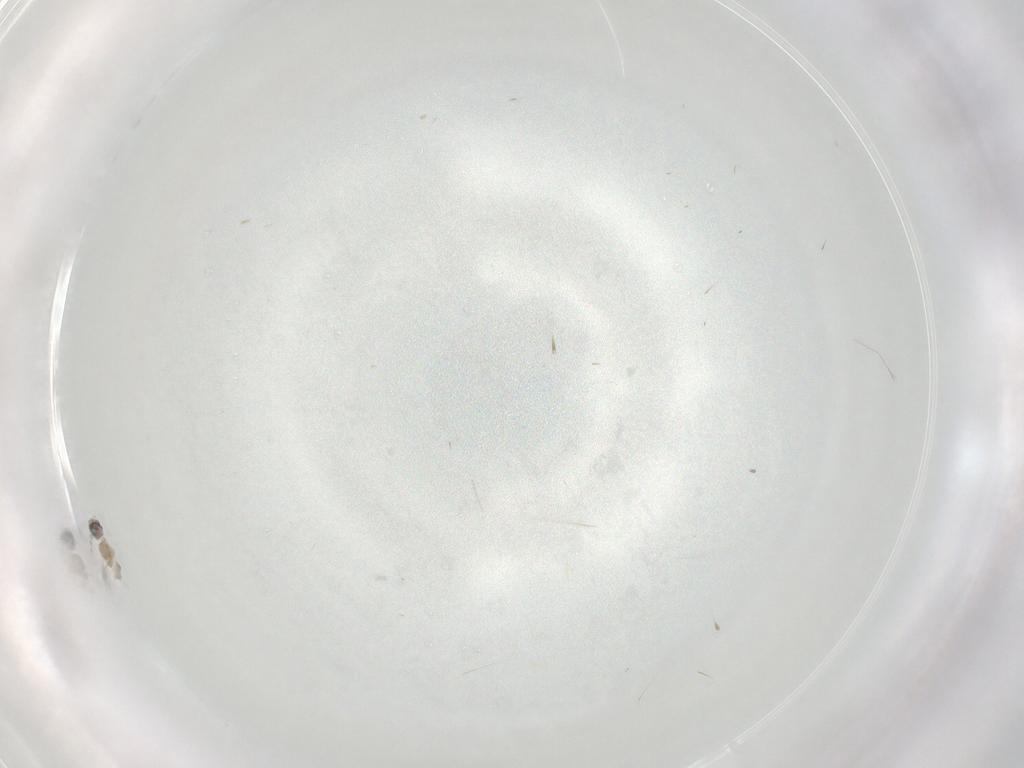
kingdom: Animalia
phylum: Arthropoda
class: Insecta
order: Diptera
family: Cecidomyiidae
